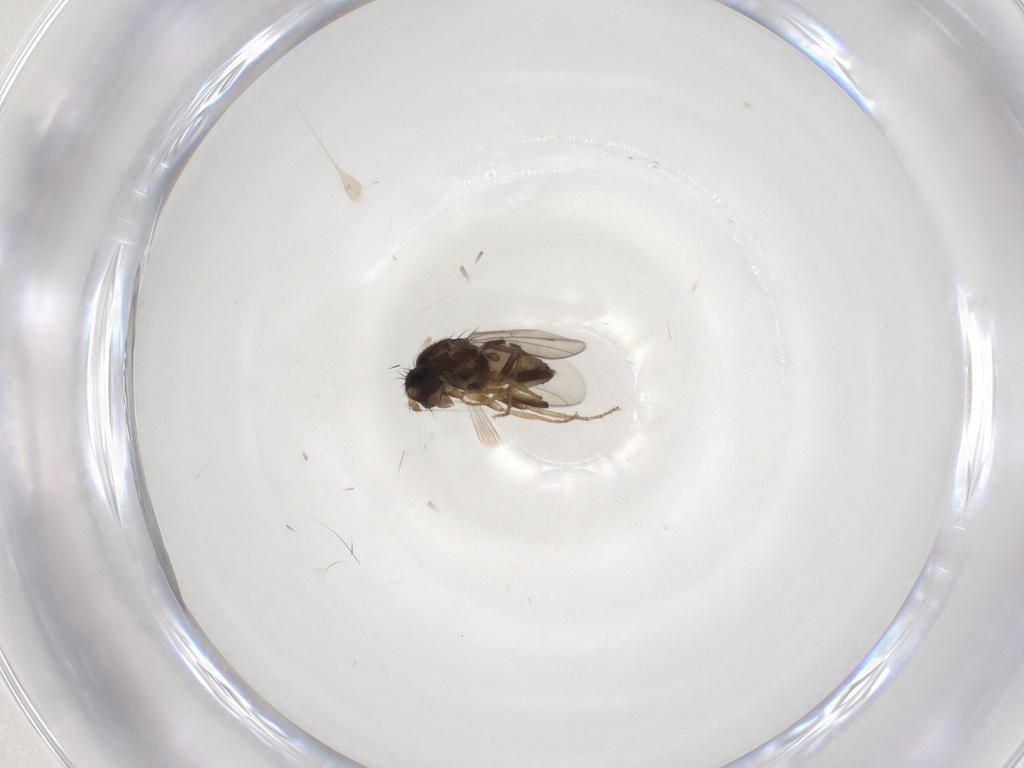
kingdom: Animalia
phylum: Arthropoda
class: Insecta
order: Diptera
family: Sphaeroceridae
